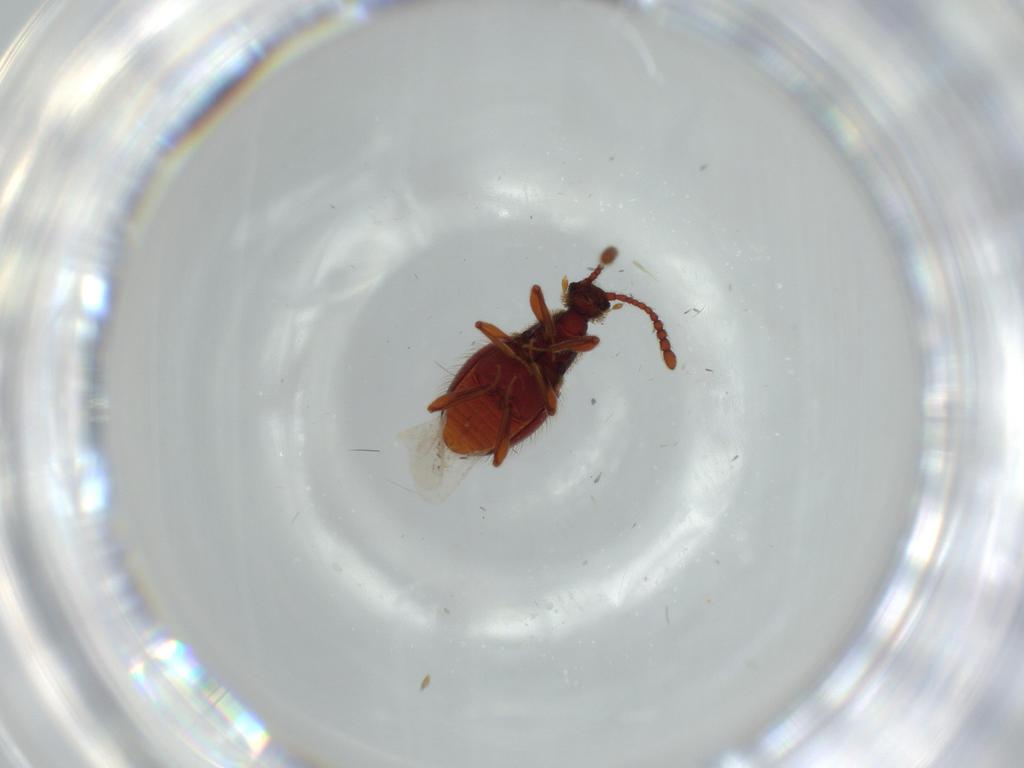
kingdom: Animalia
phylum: Arthropoda
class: Insecta
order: Coleoptera
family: Staphylinidae
